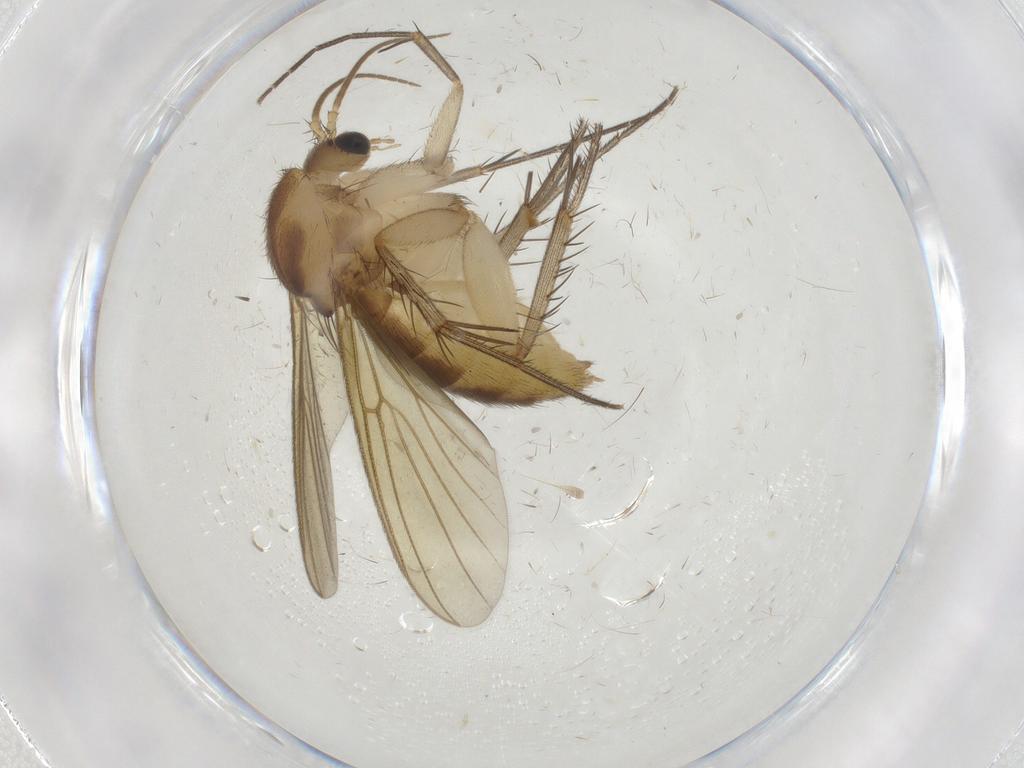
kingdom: Animalia
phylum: Arthropoda
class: Insecta
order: Diptera
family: Mycetophilidae
